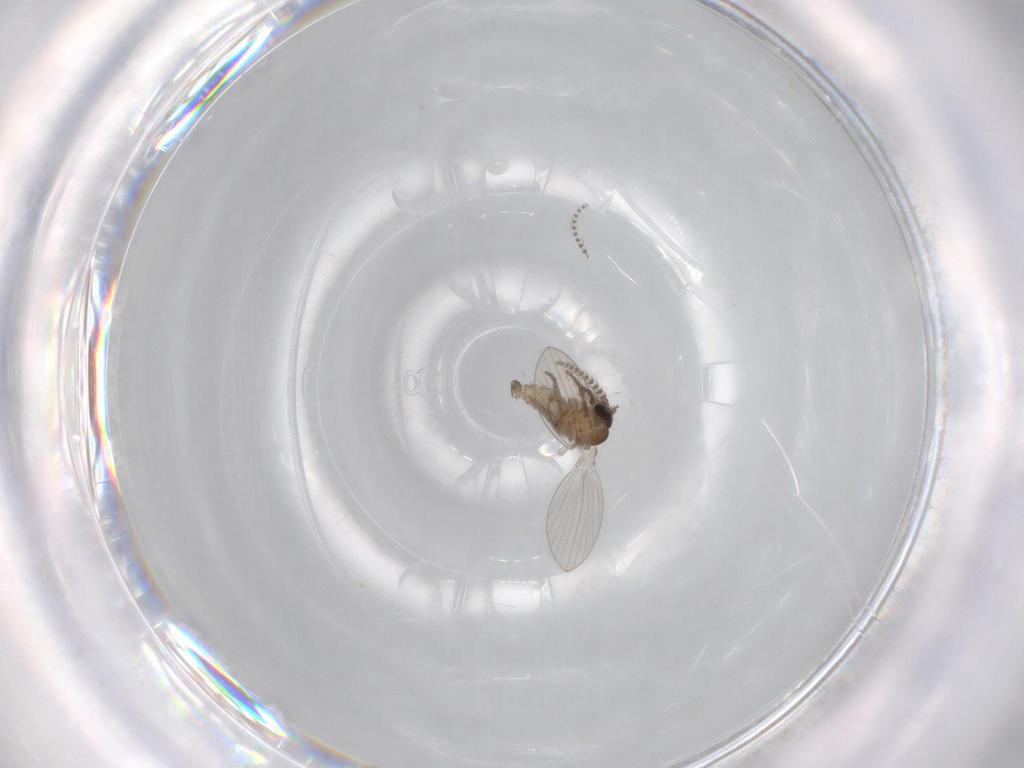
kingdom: Animalia
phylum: Arthropoda
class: Insecta
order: Diptera
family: Psychodidae
